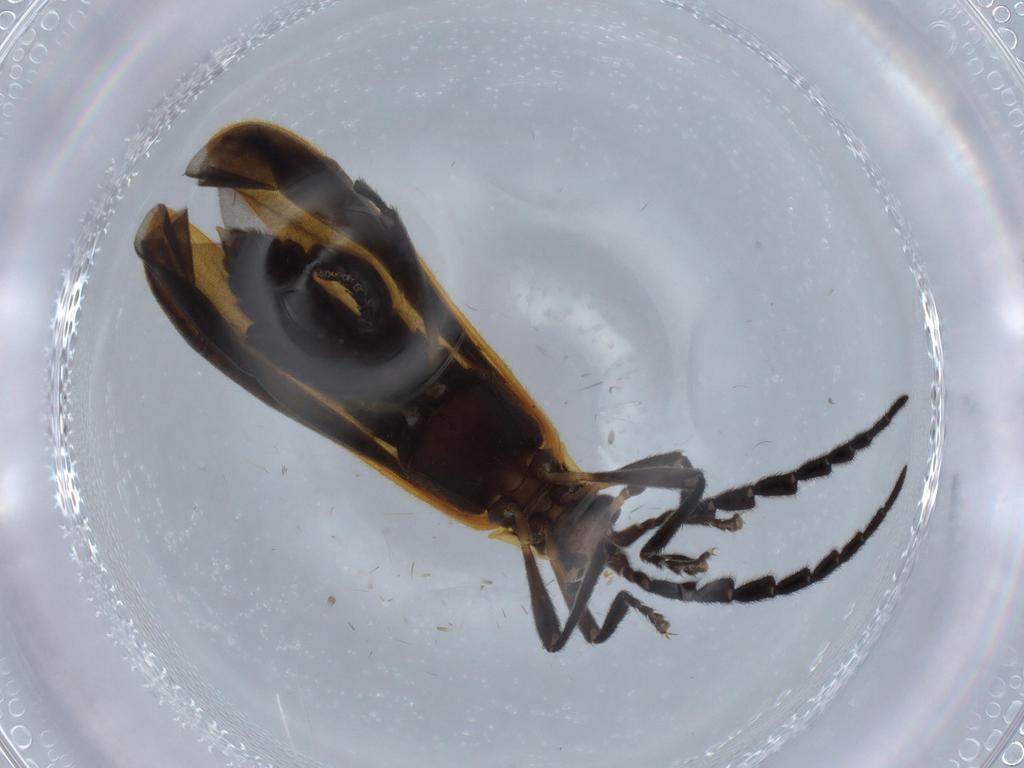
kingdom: Animalia
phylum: Arthropoda
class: Insecta
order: Coleoptera
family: Lycidae
